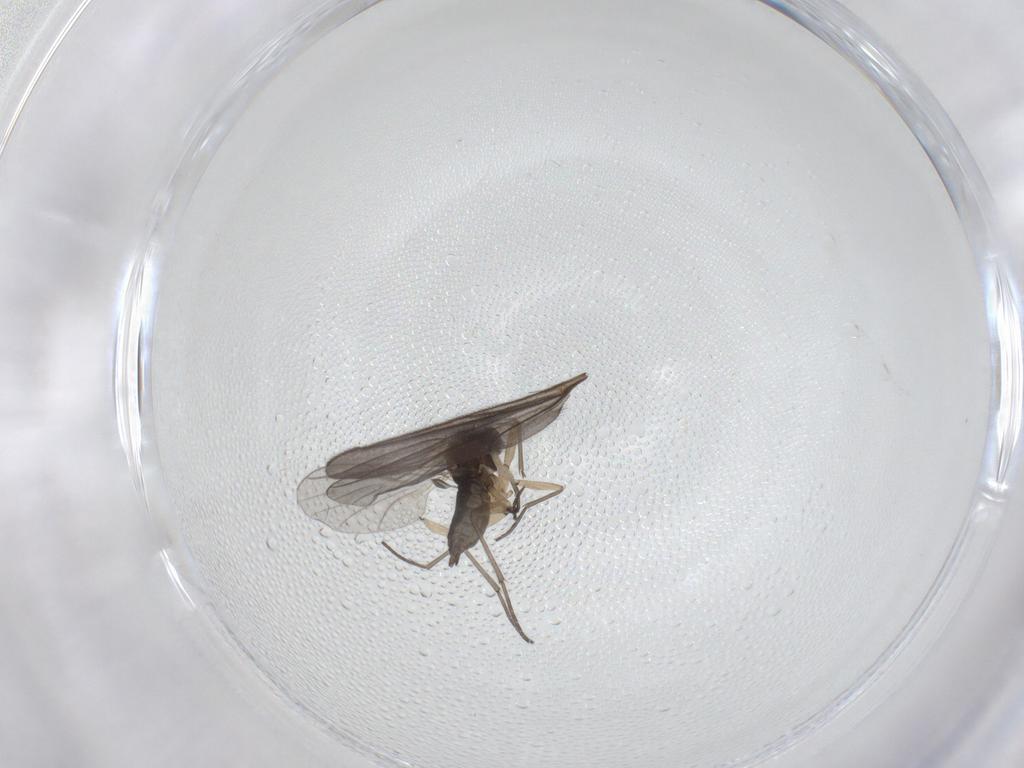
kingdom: Animalia
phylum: Arthropoda
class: Insecta
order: Diptera
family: Sciaridae
